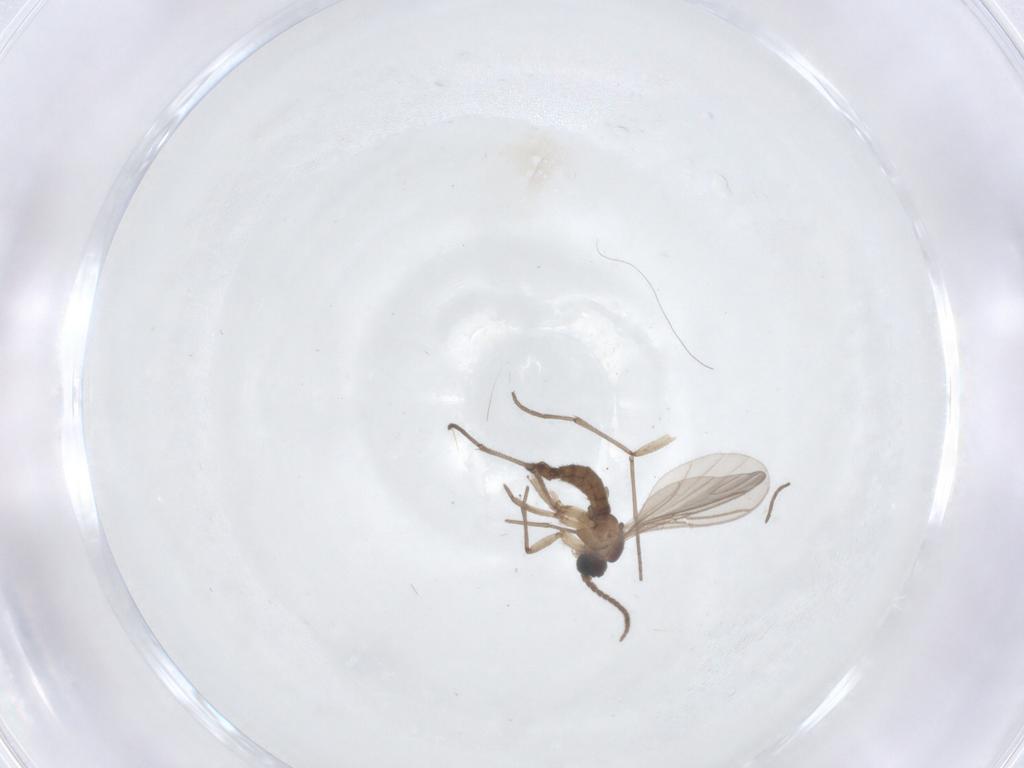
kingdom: Animalia
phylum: Arthropoda
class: Insecta
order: Diptera
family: Sciaridae
